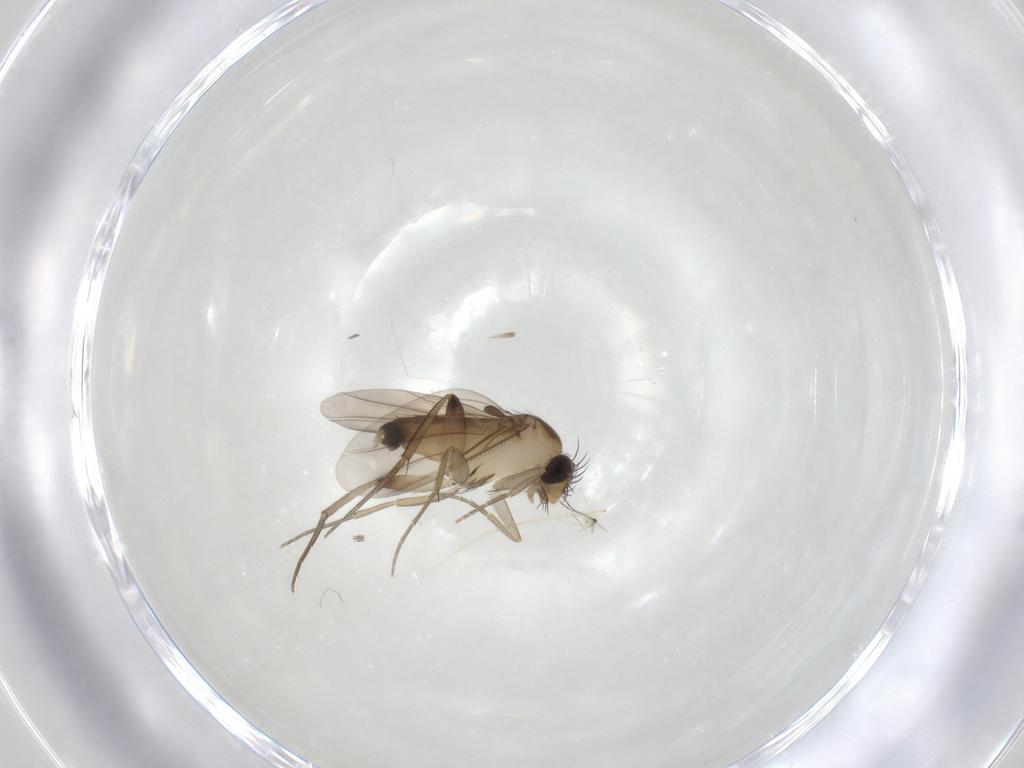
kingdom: Animalia
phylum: Arthropoda
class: Insecta
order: Diptera
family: Phoridae
